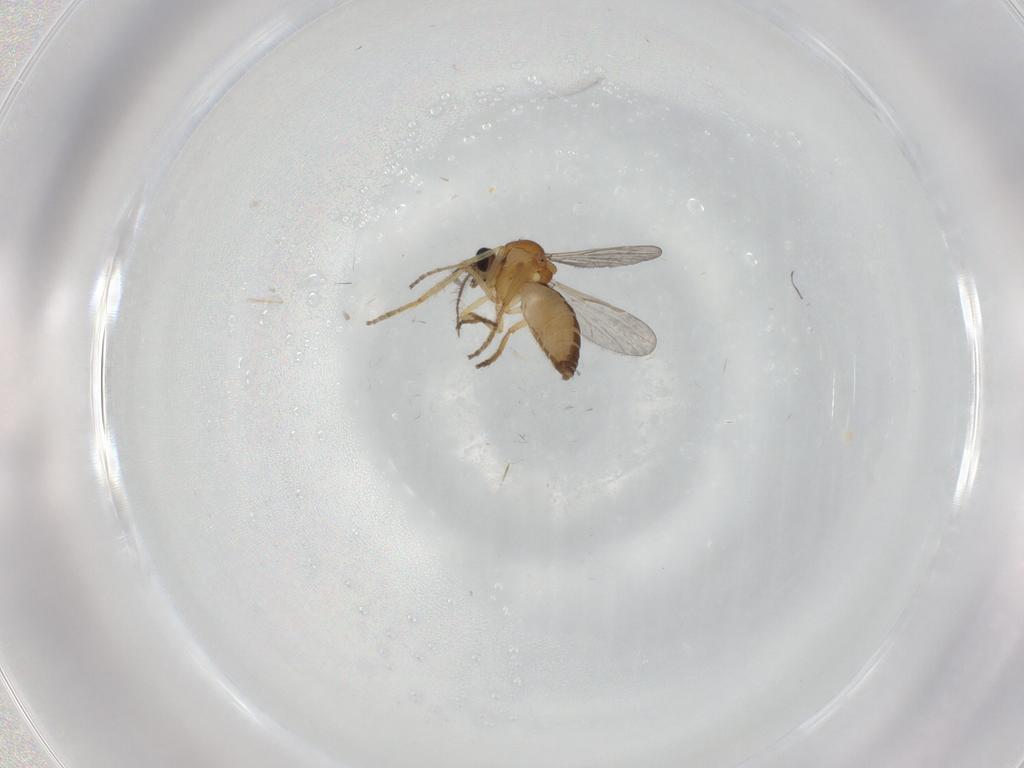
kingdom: Animalia
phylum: Arthropoda
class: Insecta
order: Diptera
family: Ceratopogonidae
